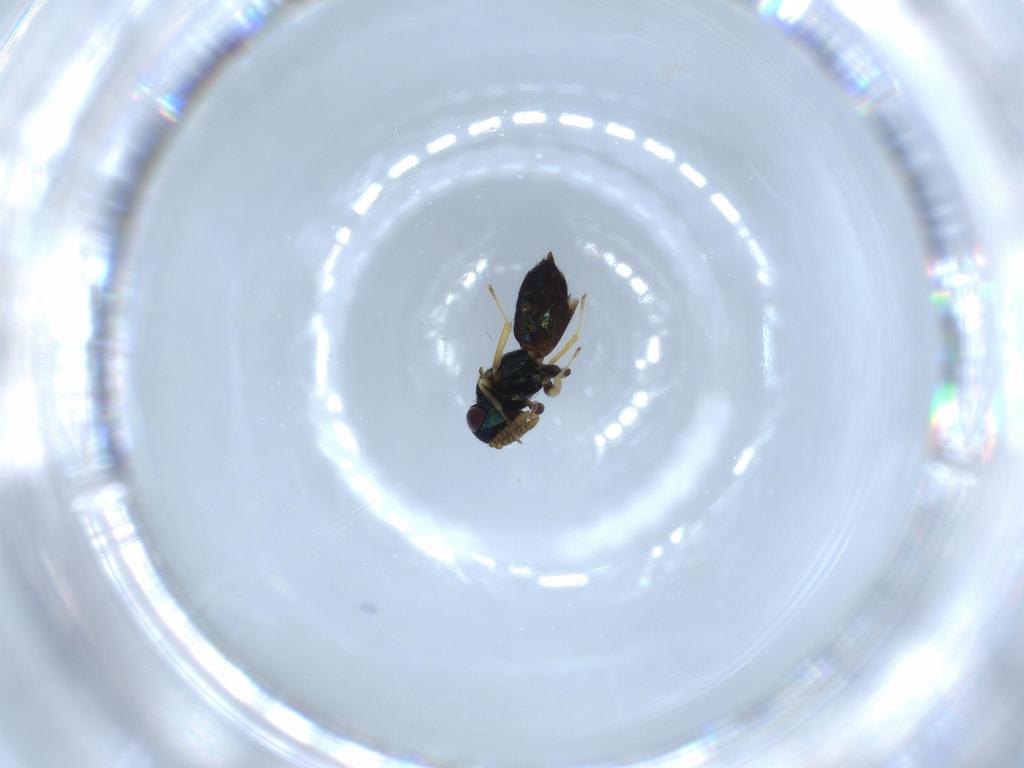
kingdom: Animalia
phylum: Arthropoda
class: Insecta
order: Hymenoptera
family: Pirenidae
